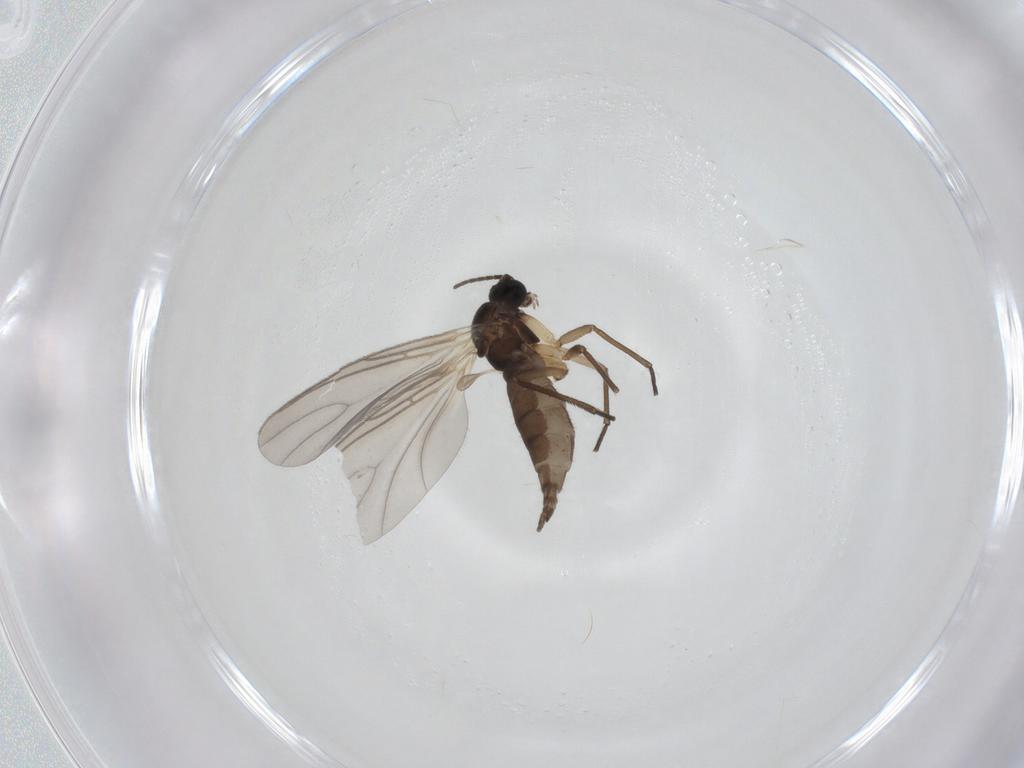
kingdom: Animalia
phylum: Arthropoda
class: Insecta
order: Diptera
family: Sciaridae
